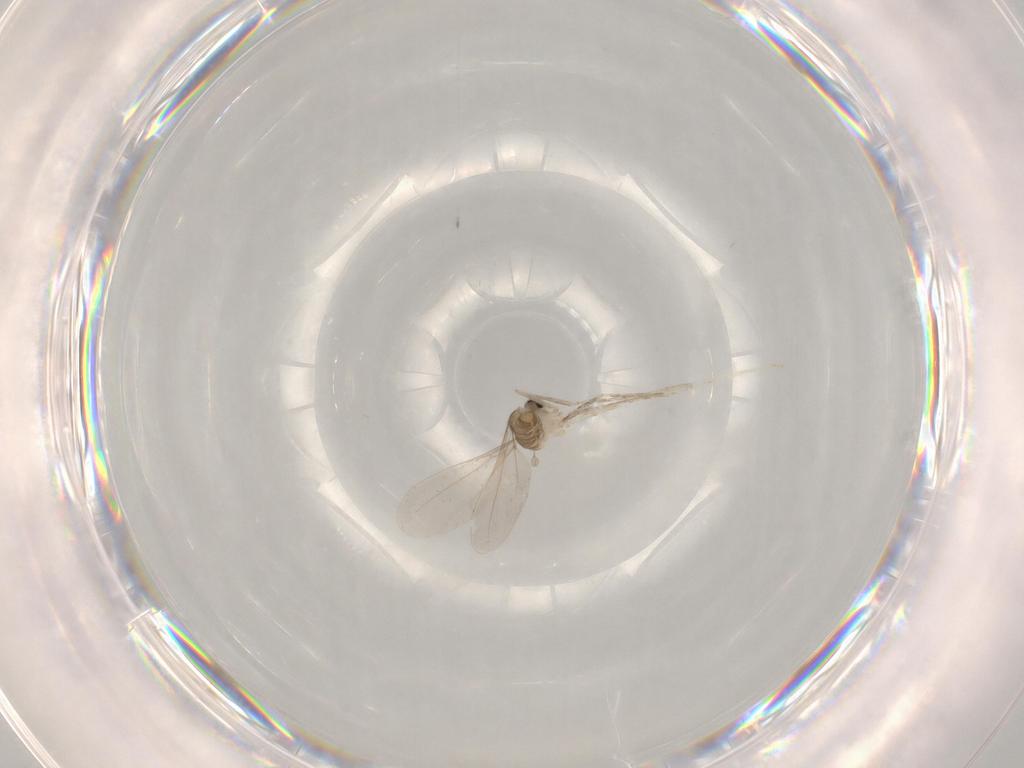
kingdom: Animalia
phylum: Arthropoda
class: Insecta
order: Diptera
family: Cecidomyiidae
